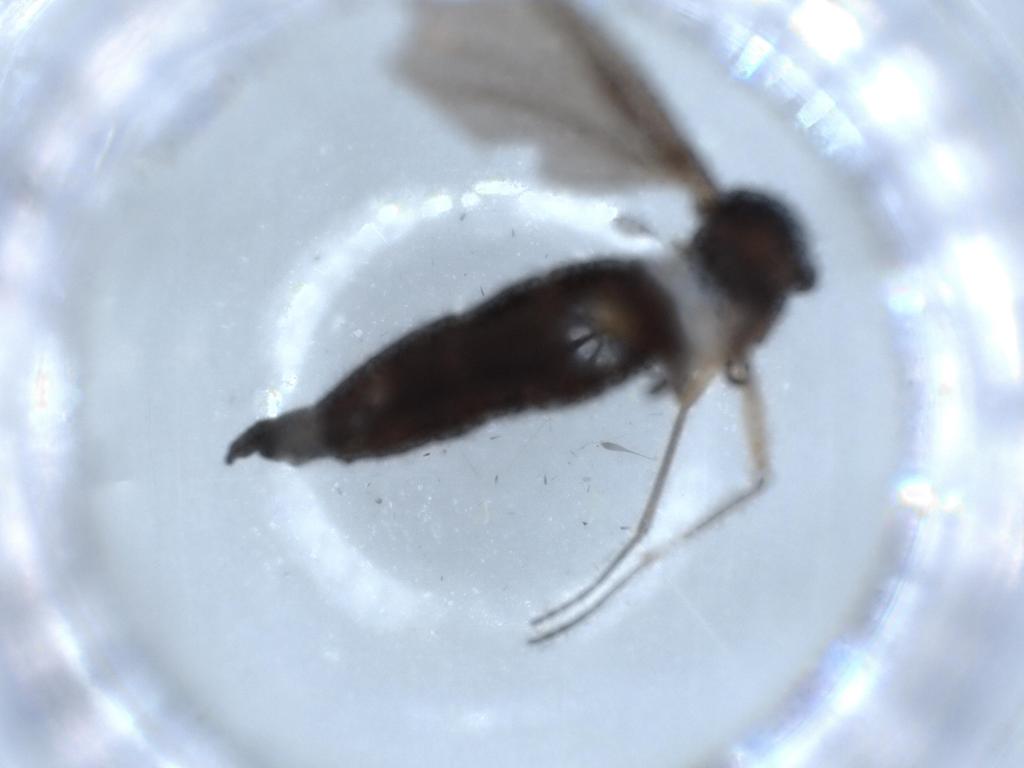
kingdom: Animalia
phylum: Arthropoda
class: Insecta
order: Diptera
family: Sciaridae
